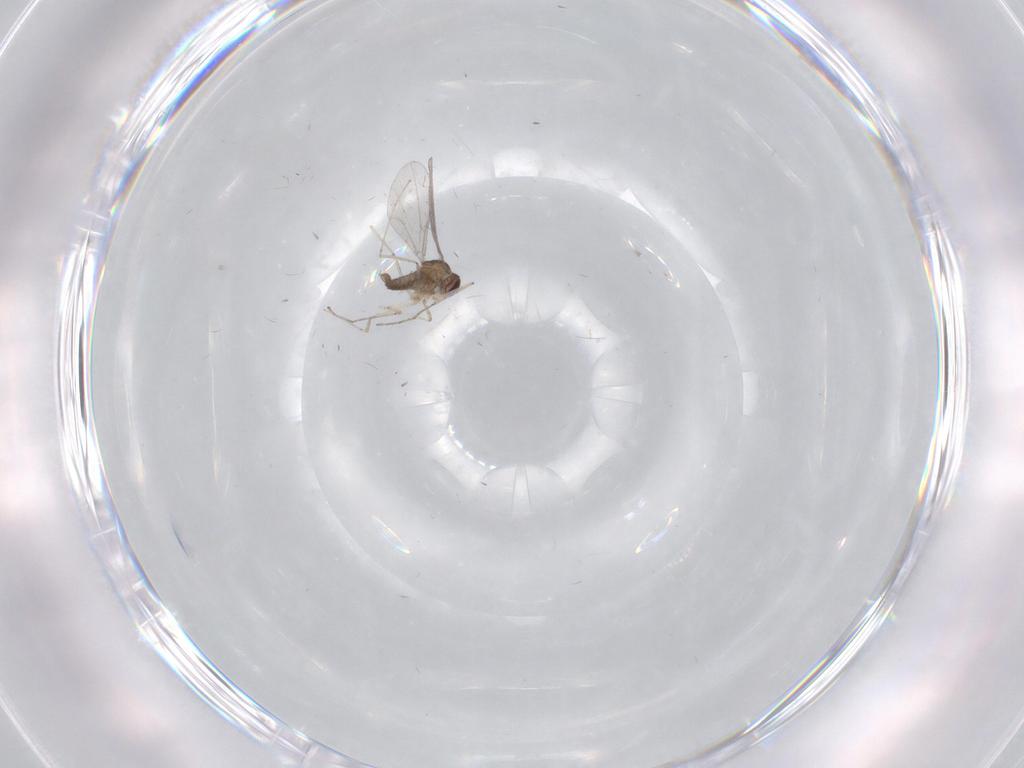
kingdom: Animalia
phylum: Arthropoda
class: Insecta
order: Diptera
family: Cecidomyiidae
